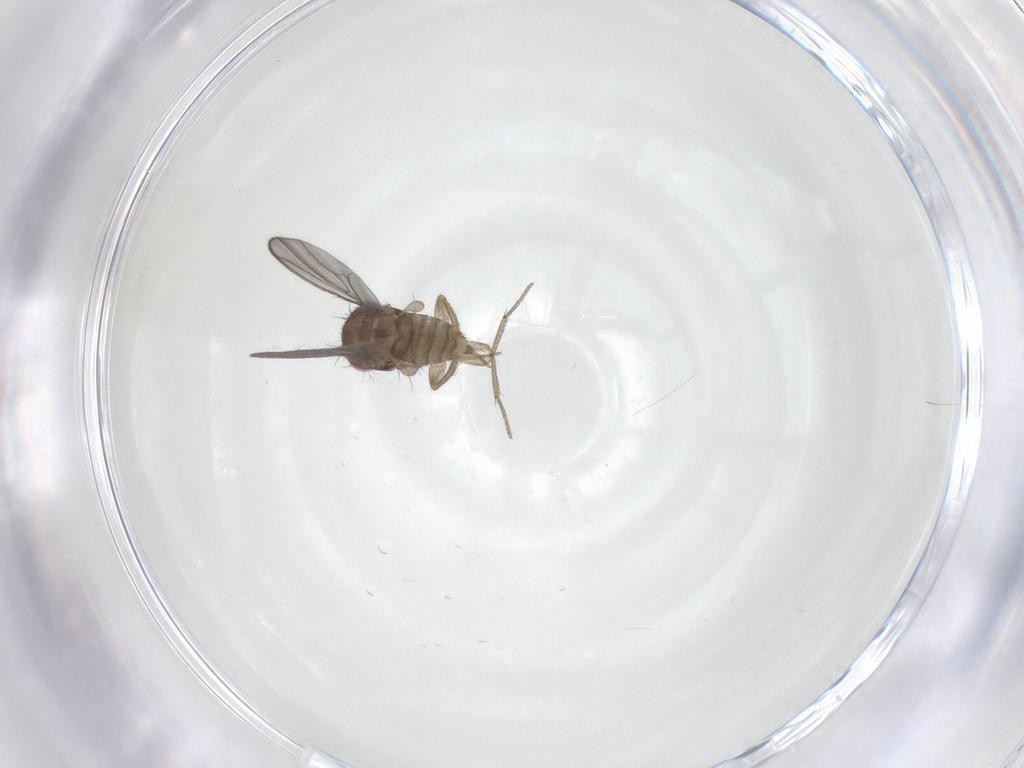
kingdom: Animalia
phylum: Arthropoda
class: Insecta
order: Diptera
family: Drosophilidae
